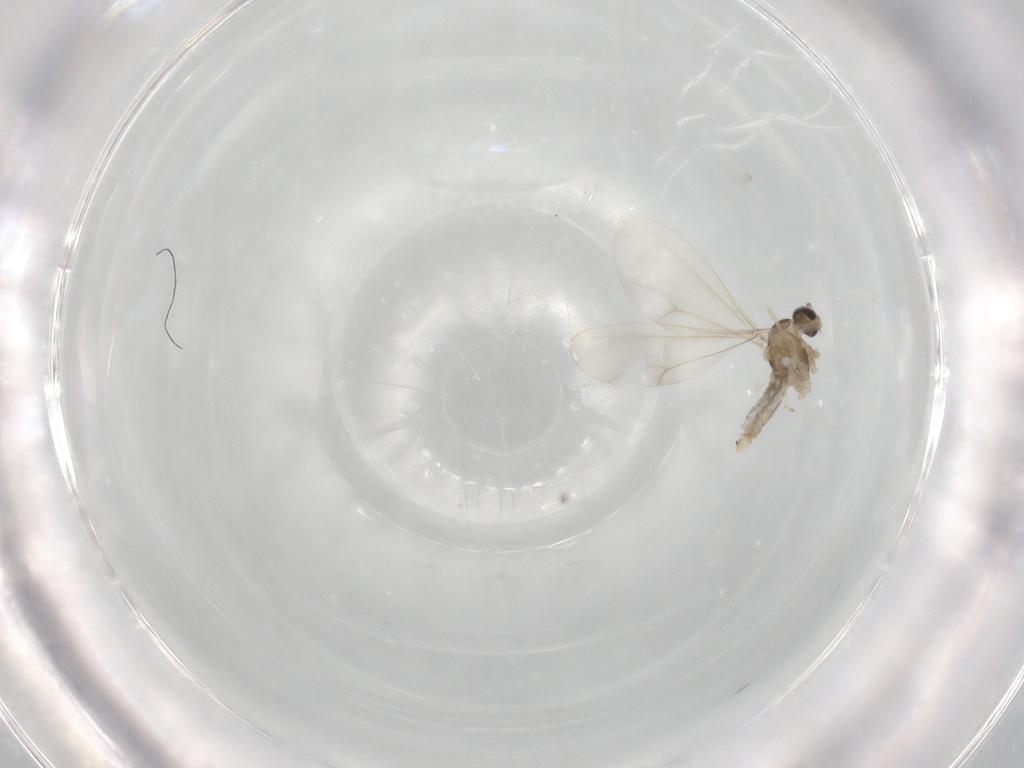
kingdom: Animalia
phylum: Arthropoda
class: Insecta
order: Diptera
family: Cecidomyiidae
